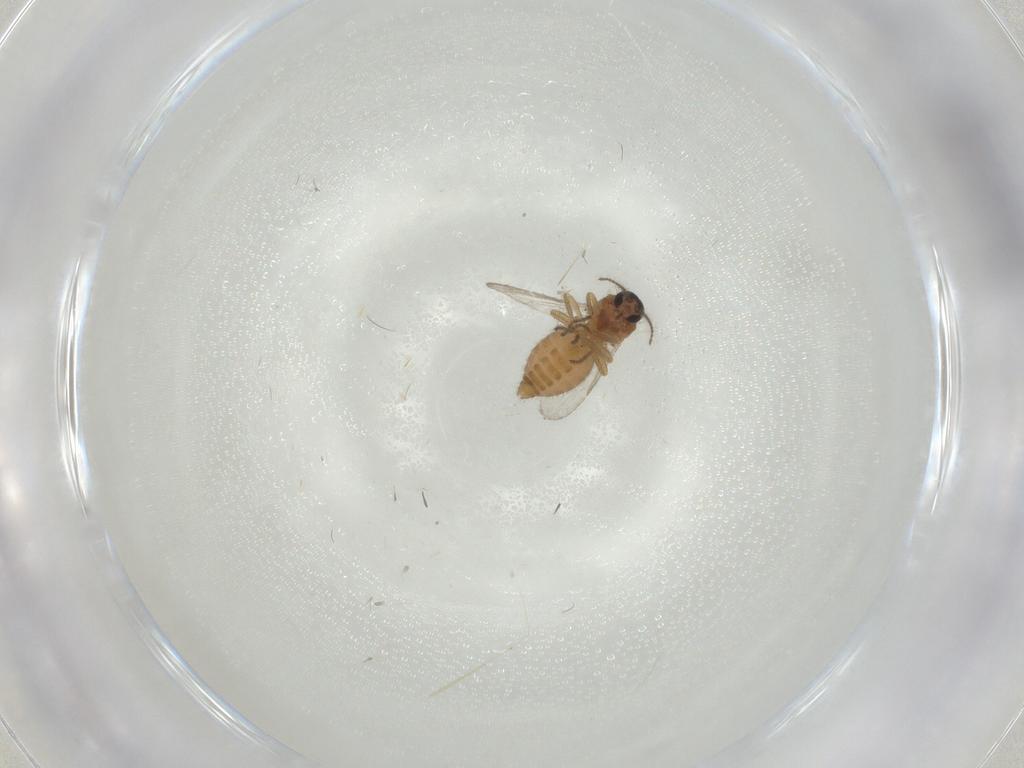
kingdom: Animalia
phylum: Arthropoda
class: Insecta
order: Diptera
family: Ceratopogonidae
